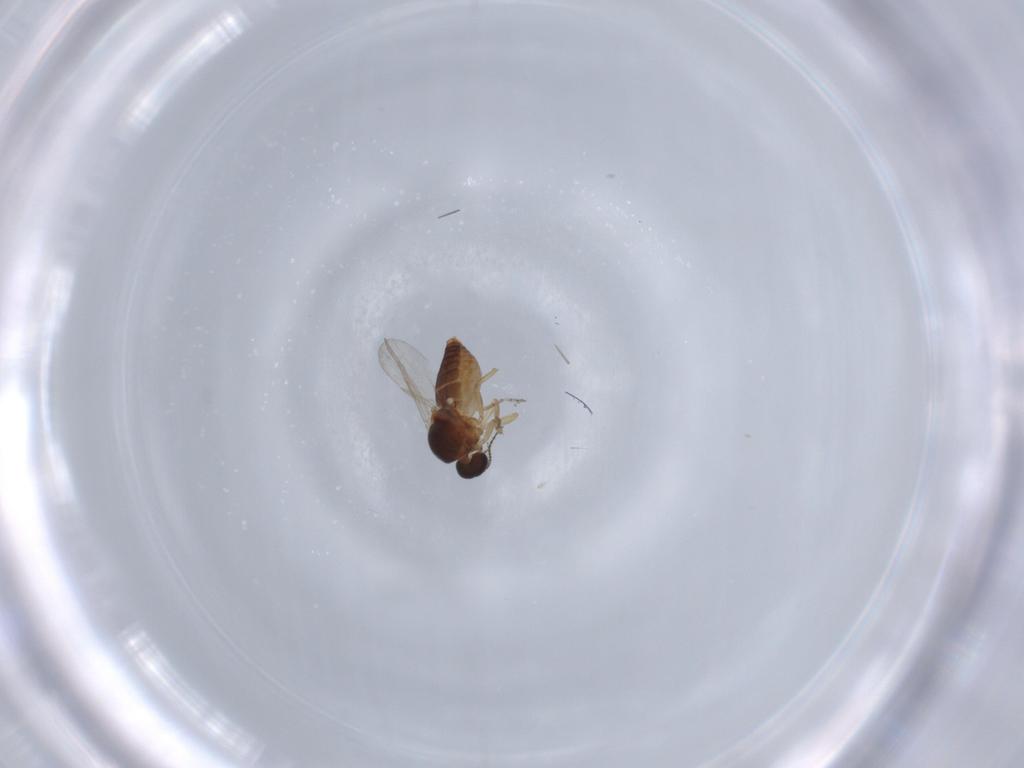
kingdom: Animalia
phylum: Arthropoda
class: Insecta
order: Diptera
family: Ceratopogonidae
